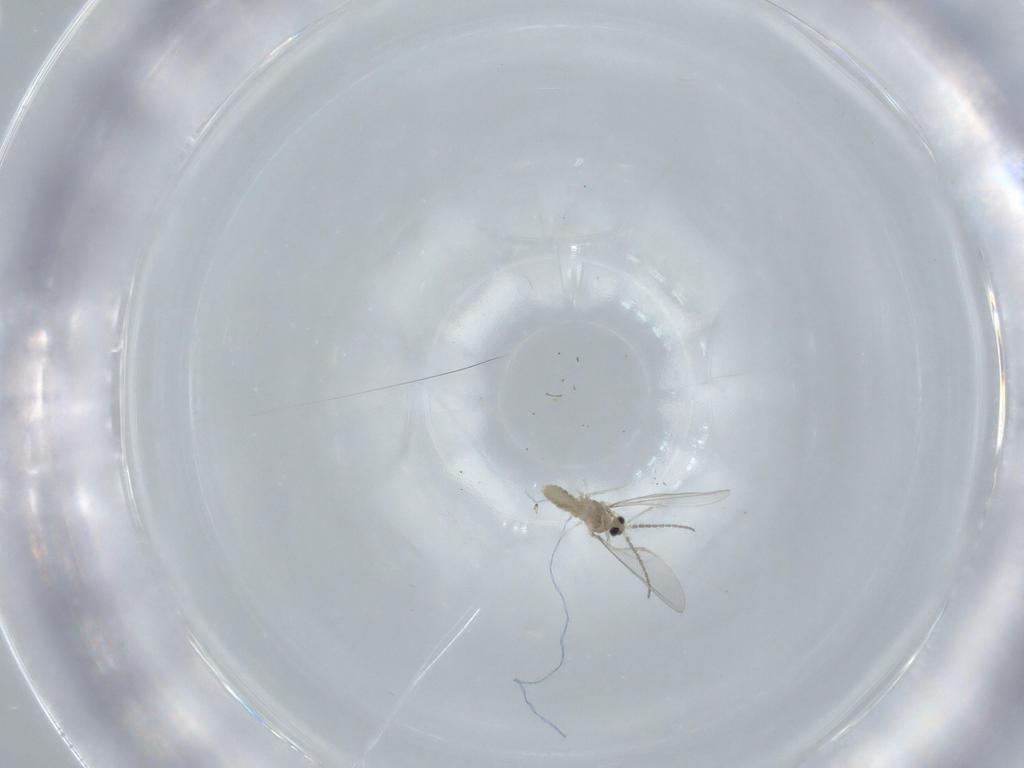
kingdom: Animalia
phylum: Arthropoda
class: Insecta
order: Diptera
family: Cecidomyiidae
